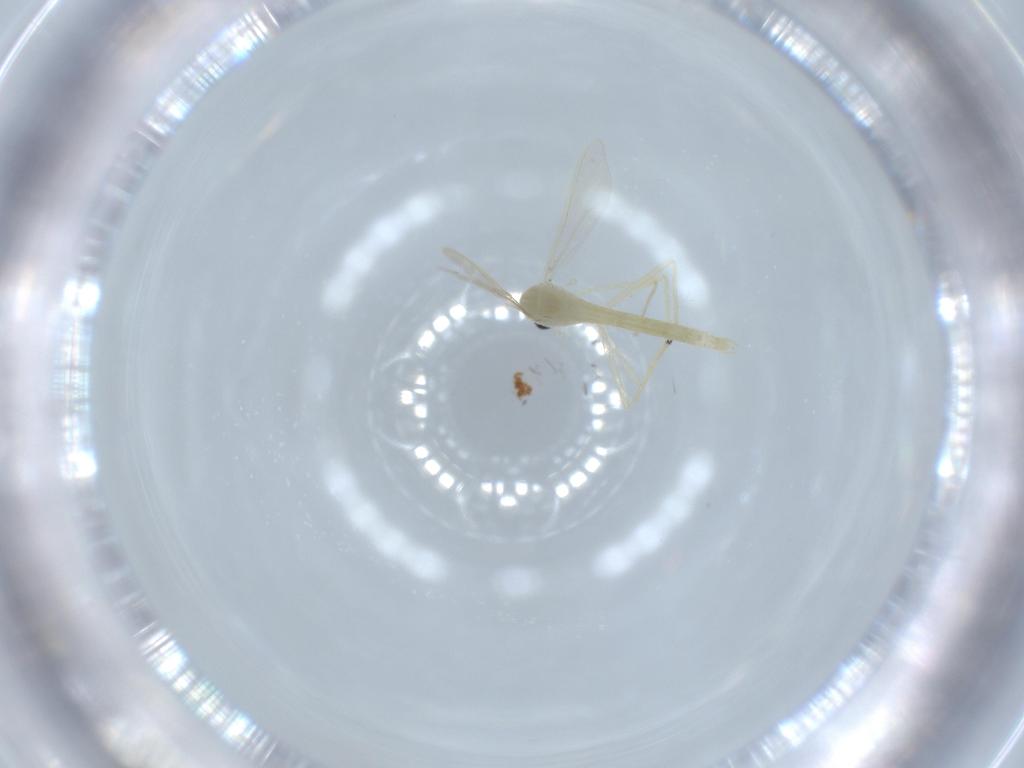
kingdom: Animalia
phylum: Arthropoda
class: Insecta
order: Diptera
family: Chironomidae
